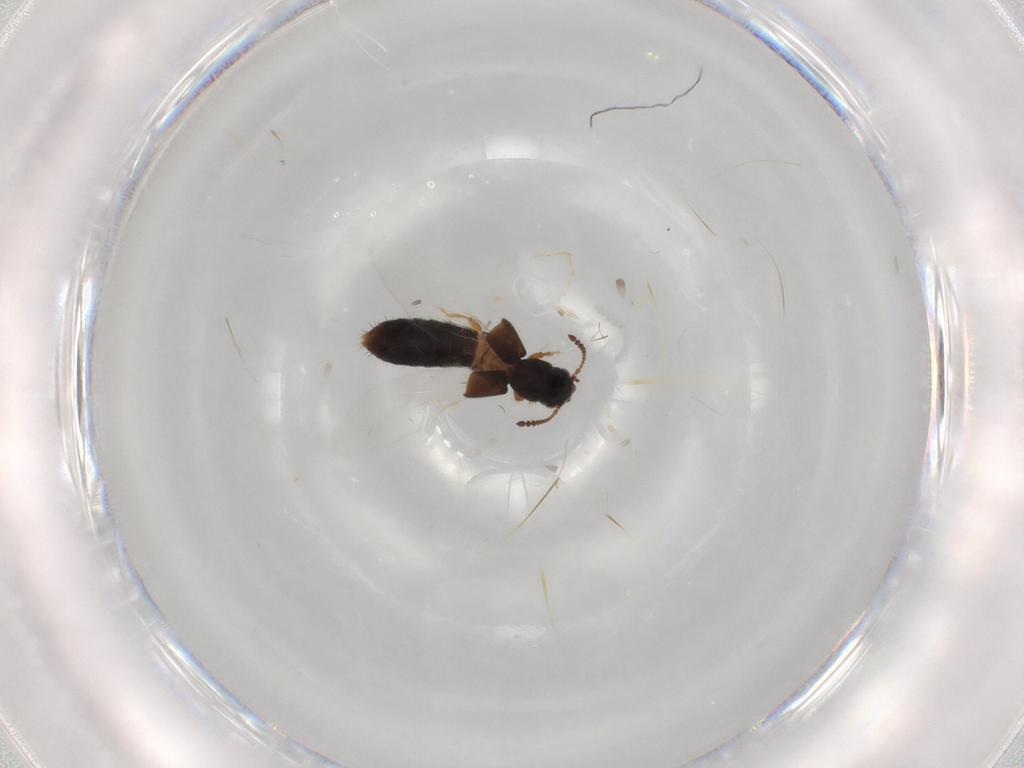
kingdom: Animalia
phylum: Arthropoda
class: Insecta
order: Coleoptera
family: Staphylinidae
